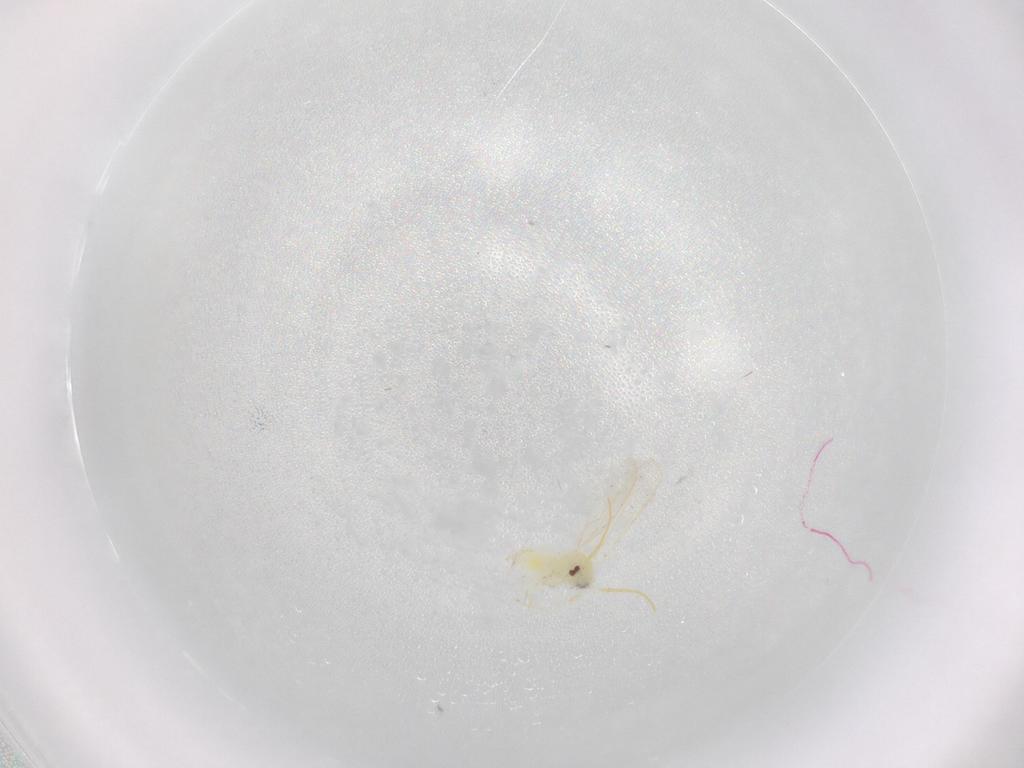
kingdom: Animalia
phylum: Arthropoda
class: Insecta
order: Hemiptera
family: Aleyrodidae
